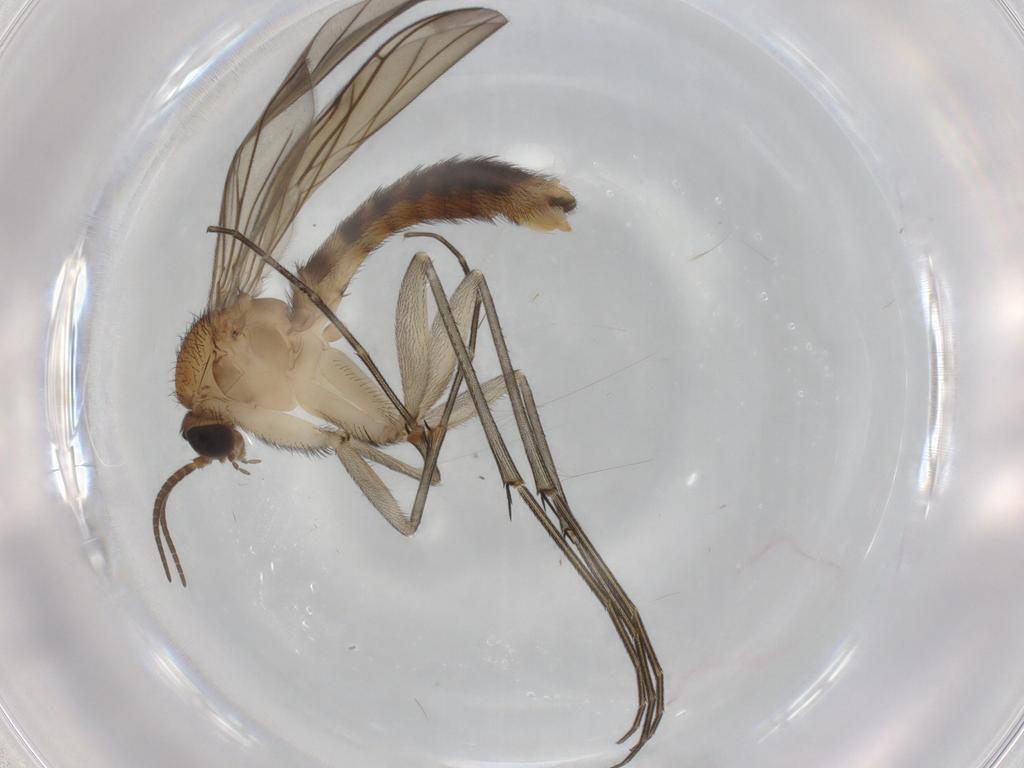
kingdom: Animalia
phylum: Arthropoda
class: Insecta
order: Diptera
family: Keroplatidae
